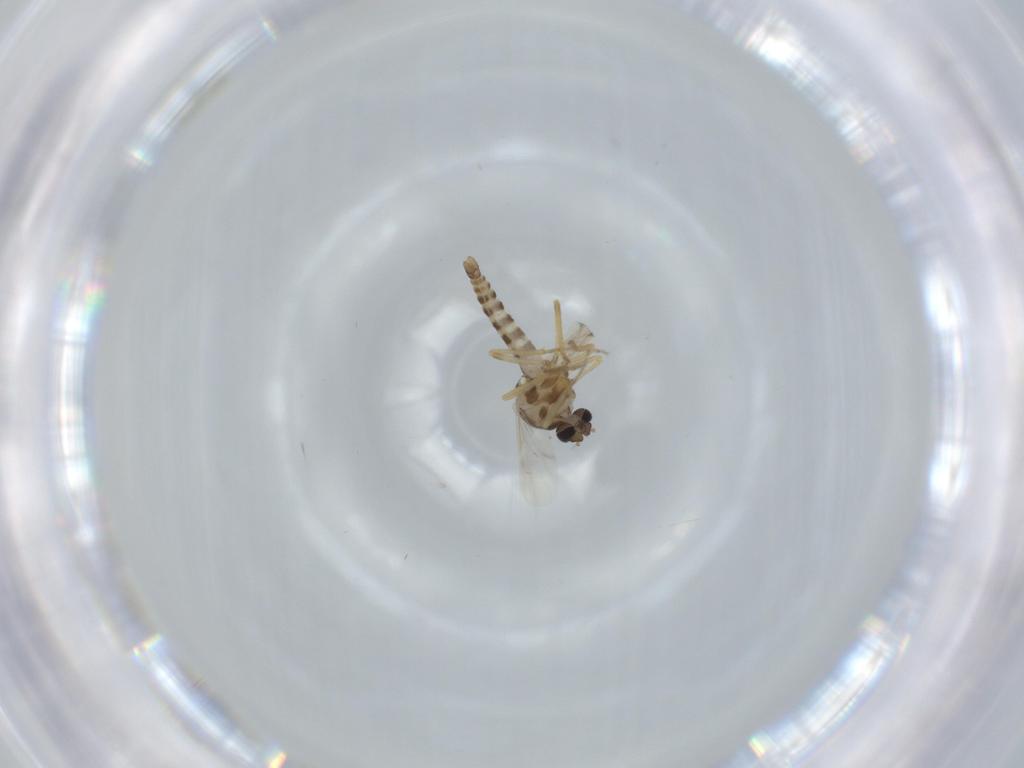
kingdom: Animalia
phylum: Arthropoda
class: Insecta
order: Diptera
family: Ceratopogonidae
